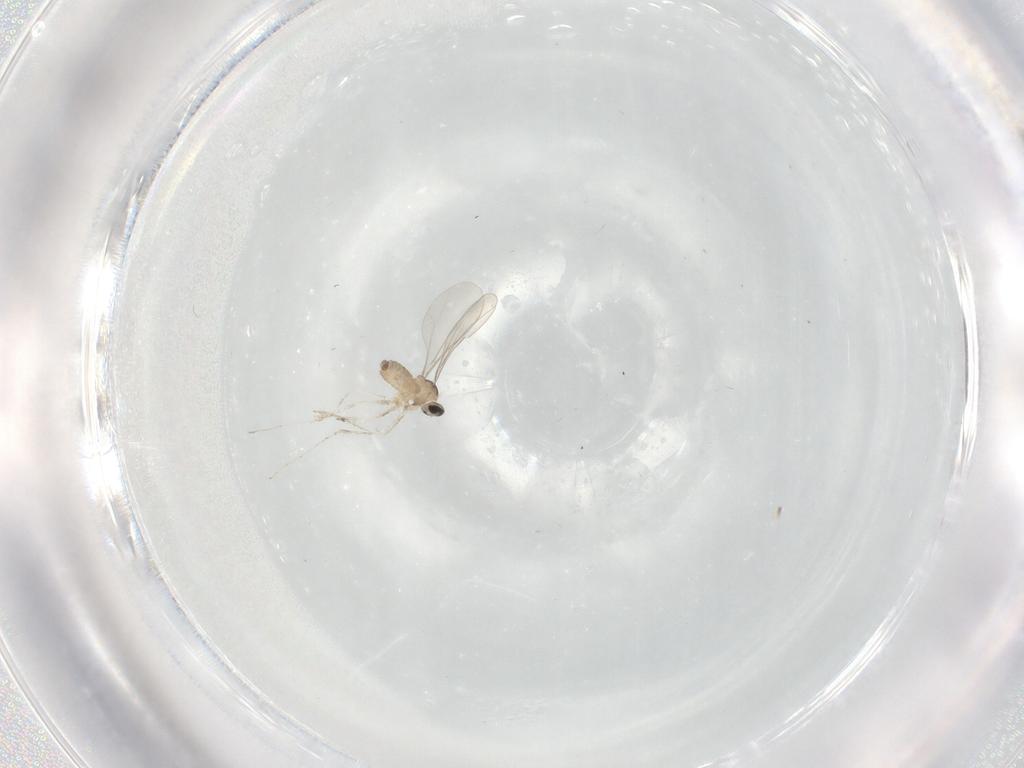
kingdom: Animalia
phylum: Arthropoda
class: Insecta
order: Diptera
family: Cecidomyiidae
